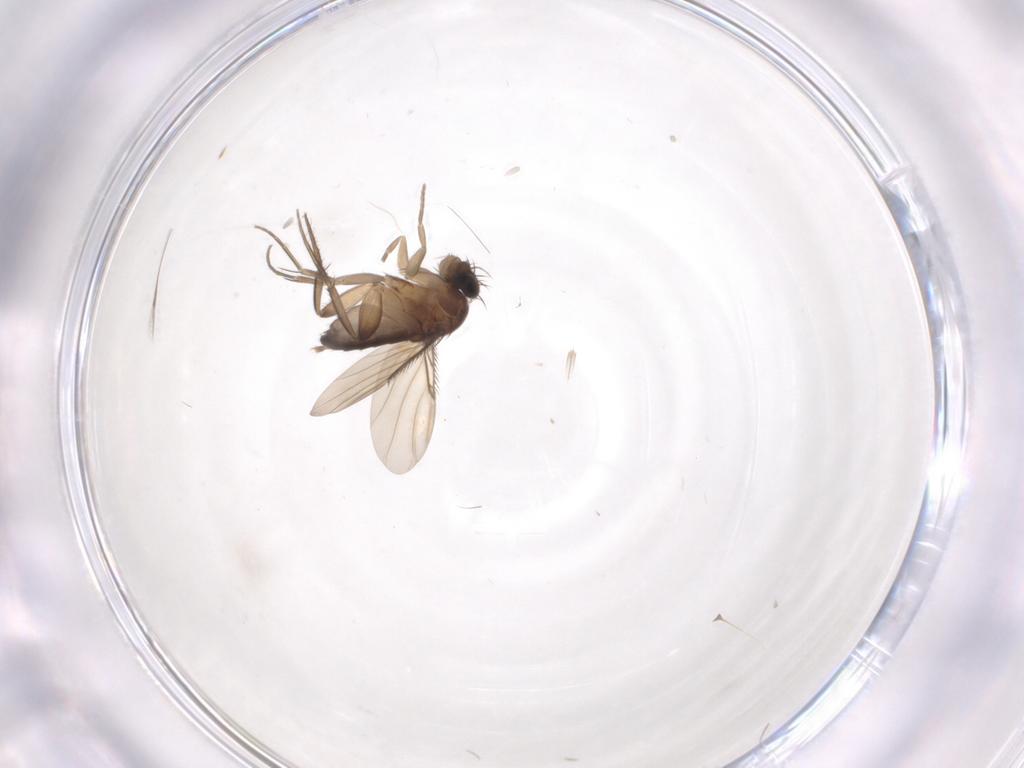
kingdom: Animalia
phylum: Arthropoda
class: Insecta
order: Diptera
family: Phoridae
